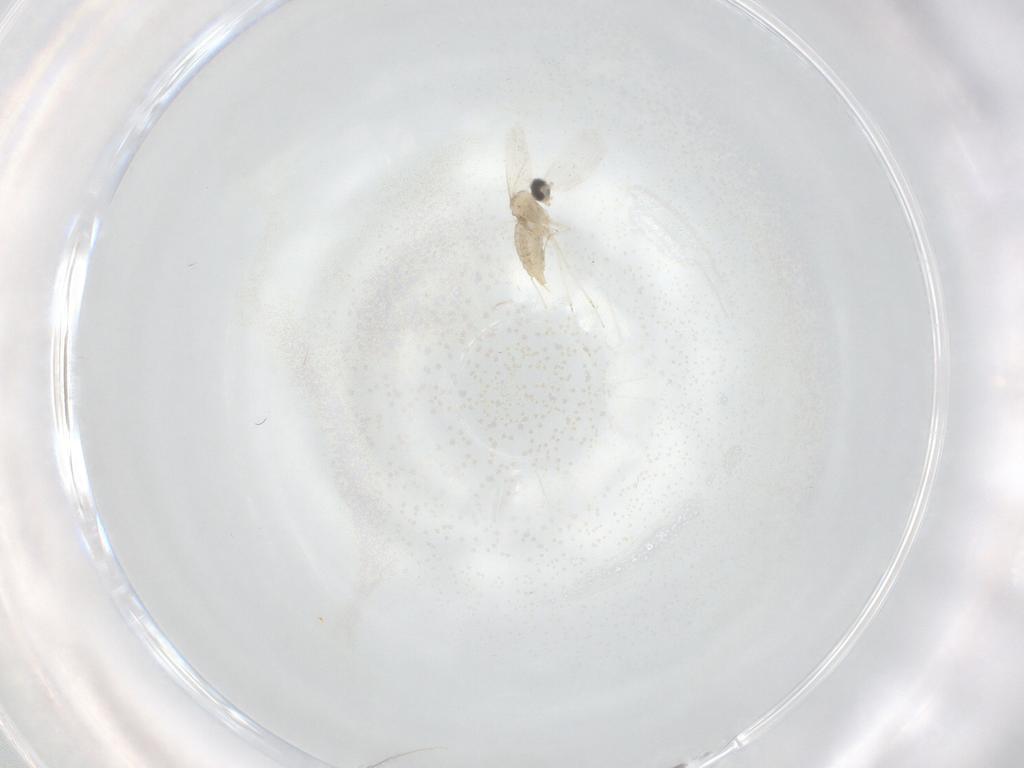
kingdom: Animalia
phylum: Arthropoda
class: Insecta
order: Diptera
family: Cecidomyiidae
